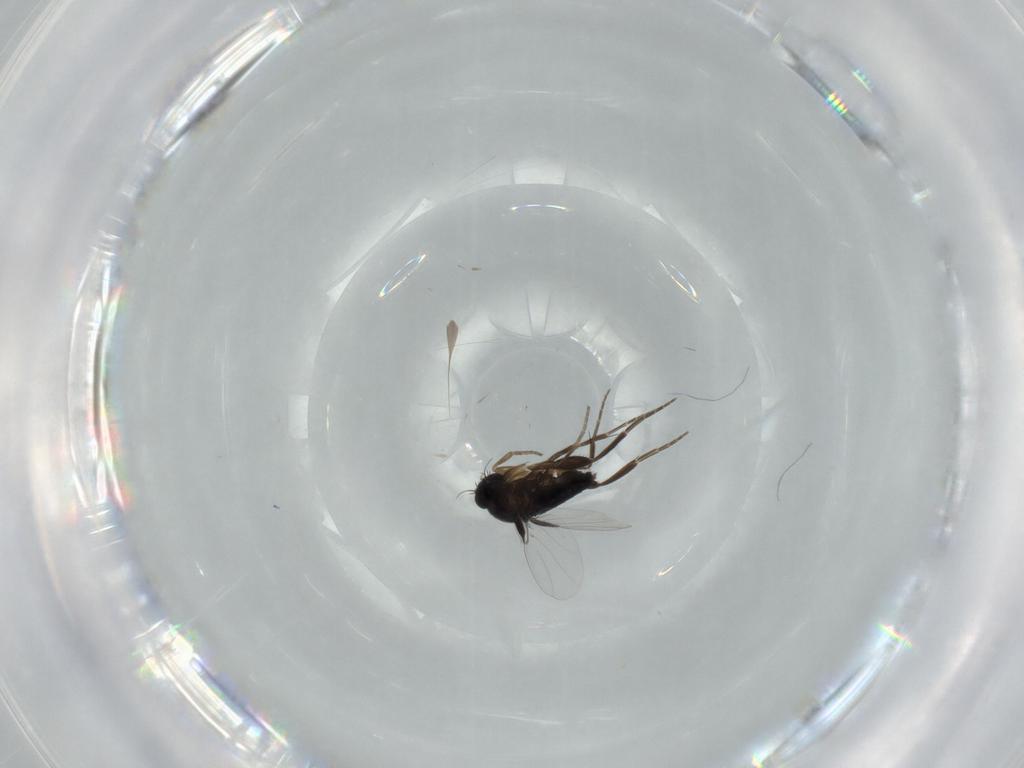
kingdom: Animalia
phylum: Arthropoda
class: Insecta
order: Diptera
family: Phoridae
